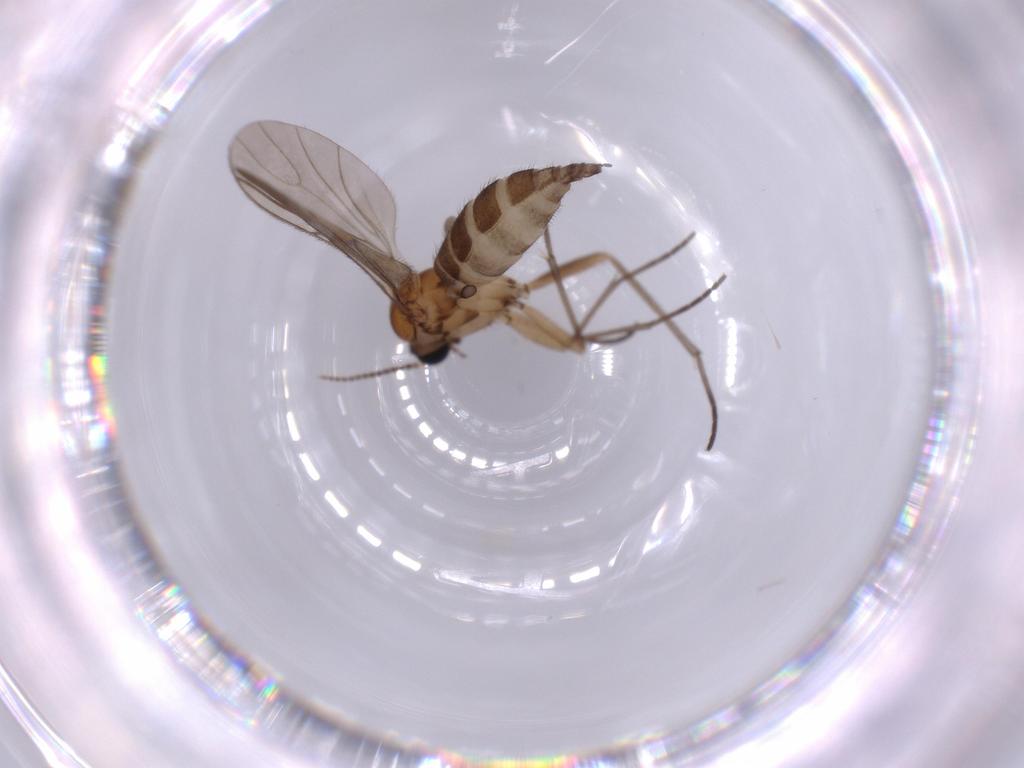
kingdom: Animalia
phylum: Arthropoda
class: Insecta
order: Diptera
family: Sciaridae
